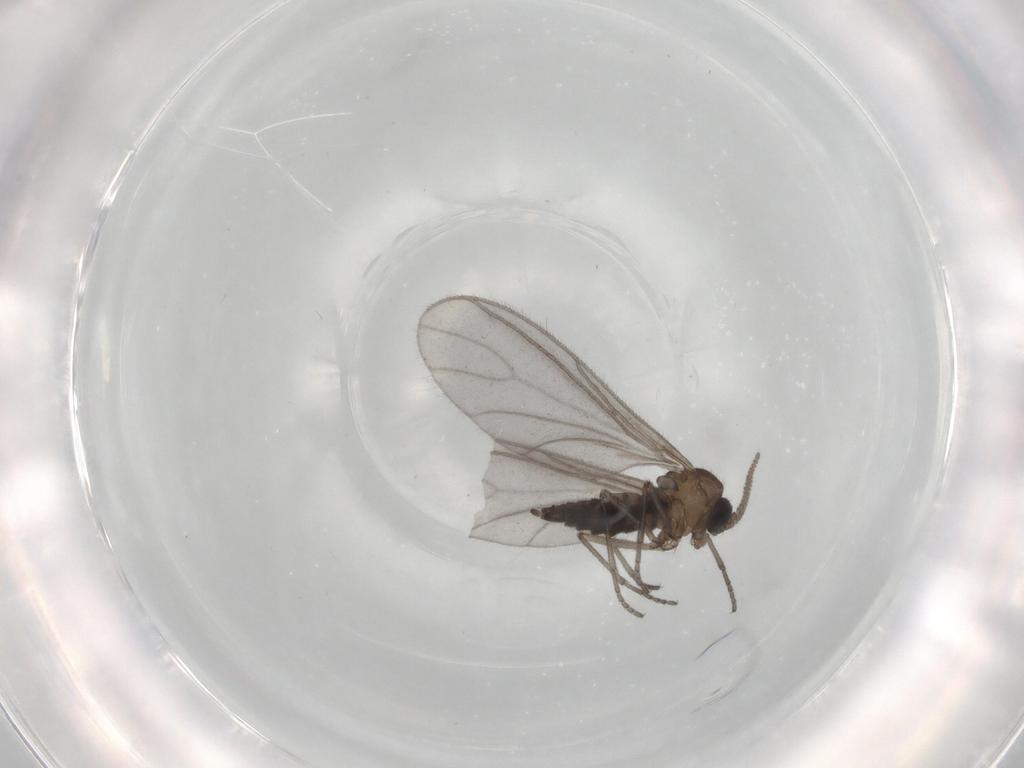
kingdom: Animalia
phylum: Arthropoda
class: Insecta
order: Diptera
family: Sciaridae
